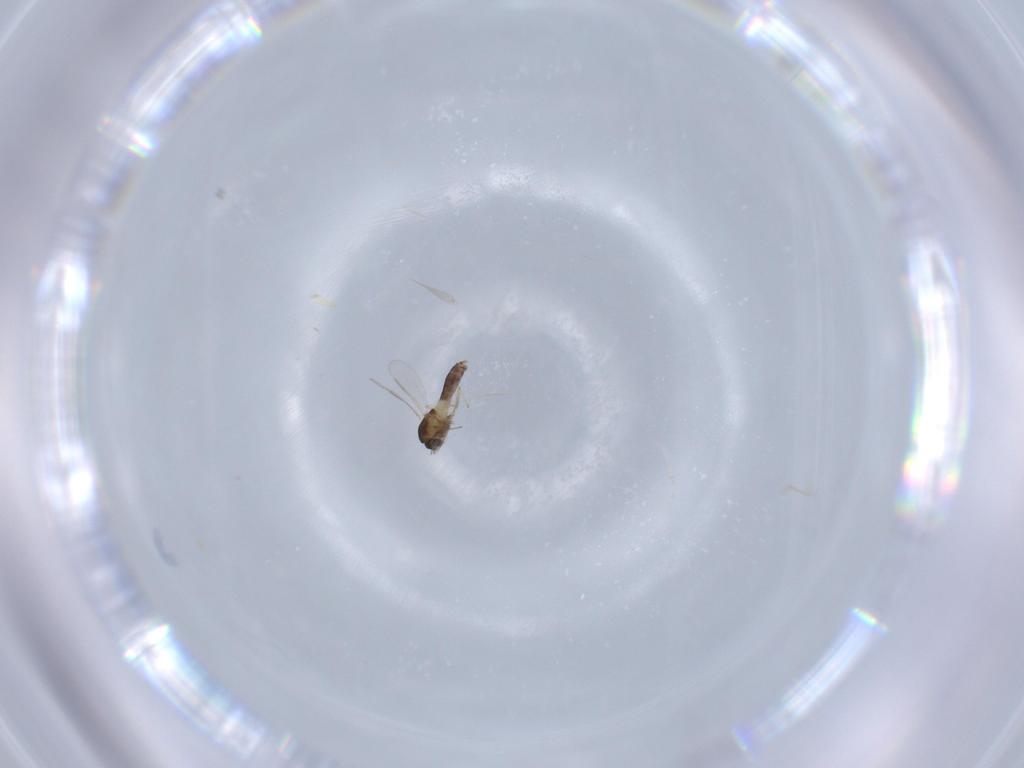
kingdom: Animalia
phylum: Arthropoda
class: Insecta
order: Diptera
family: Chironomidae
